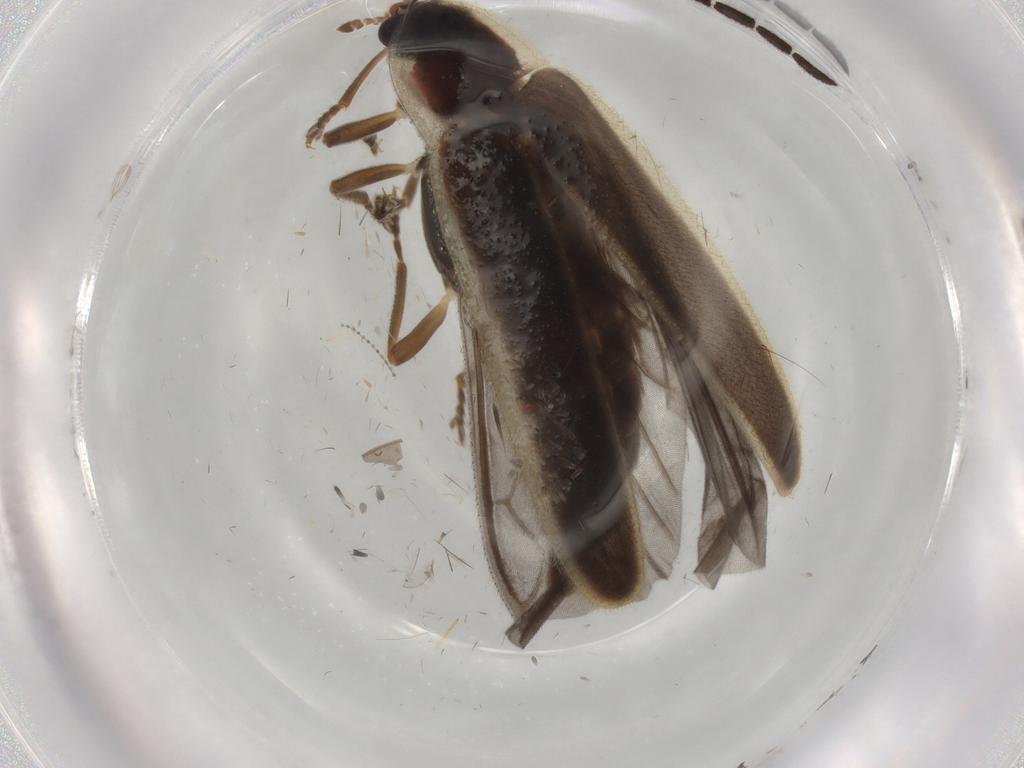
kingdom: Animalia
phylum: Arthropoda
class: Insecta
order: Coleoptera
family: Lampyridae
